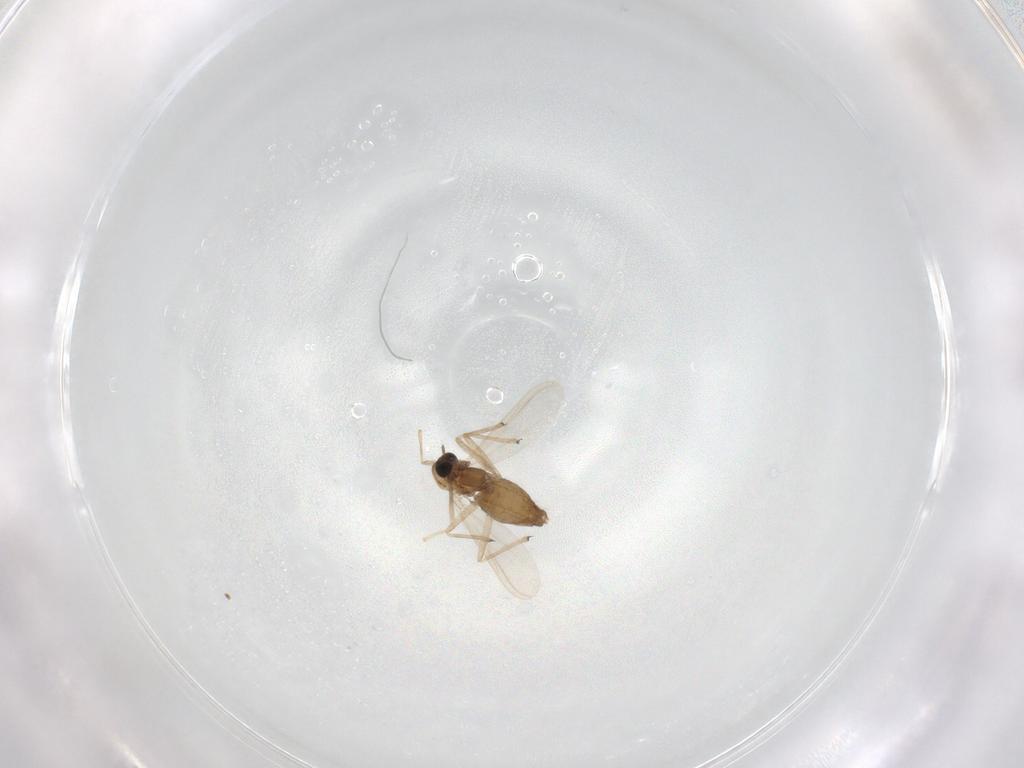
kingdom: Animalia
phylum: Arthropoda
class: Insecta
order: Diptera
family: Chironomidae
